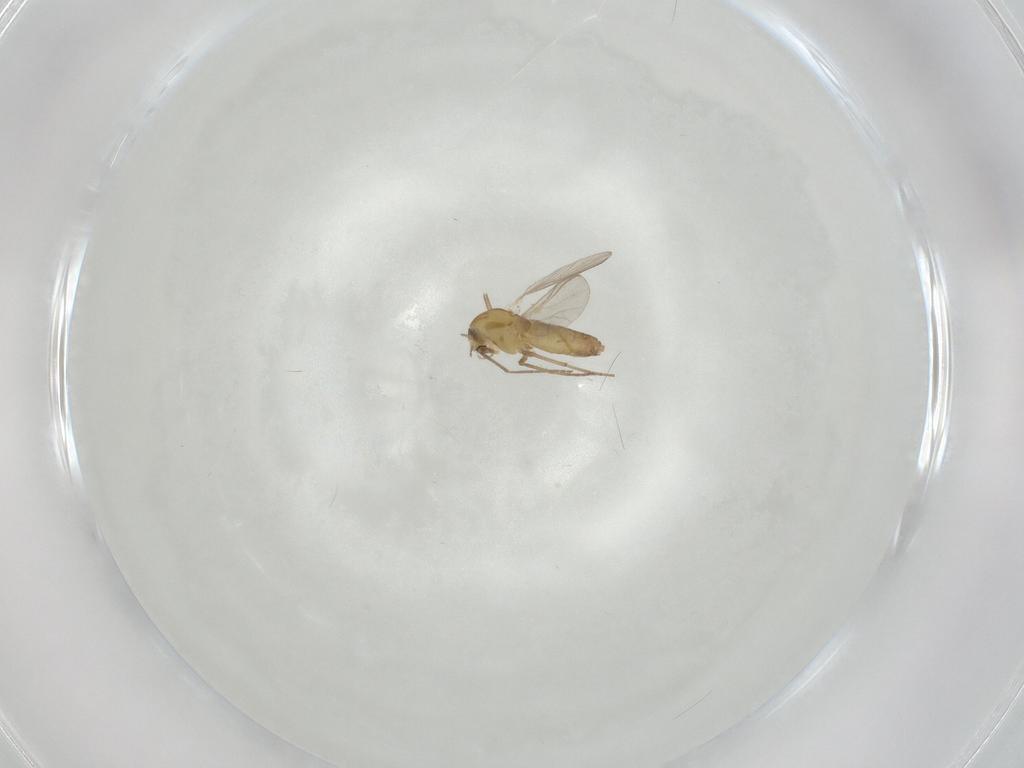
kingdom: Animalia
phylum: Arthropoda
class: Insecta
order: Diptera
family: Chironomidae
